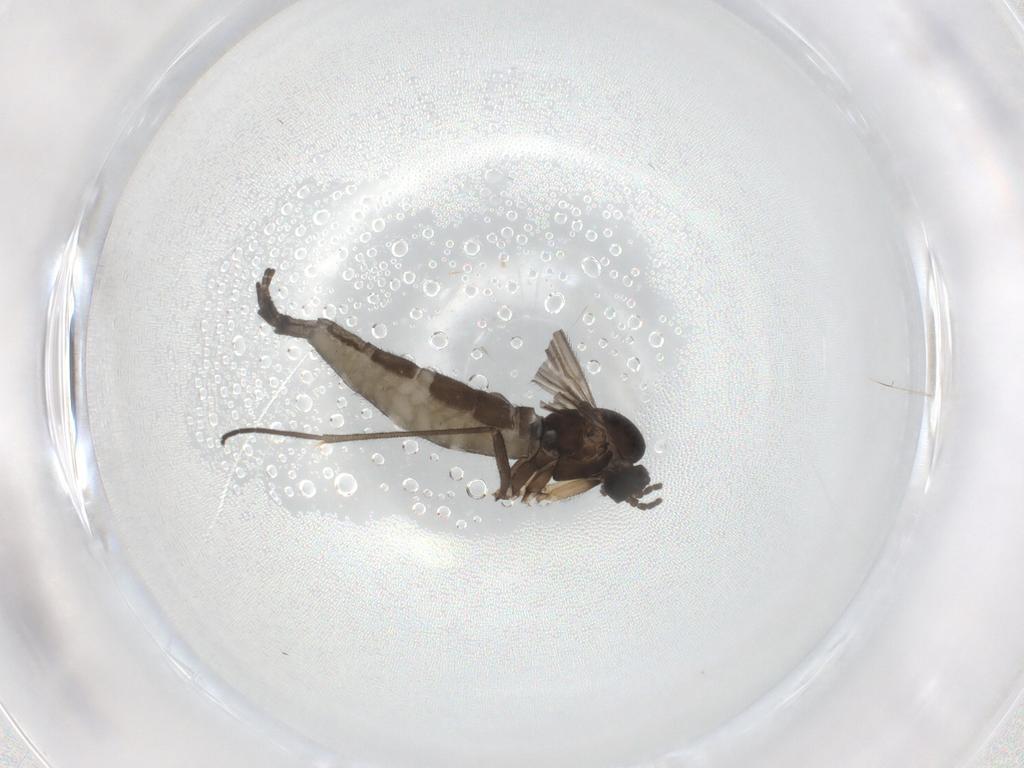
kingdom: Animalia
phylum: Arthropoda
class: Insecta
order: Diptera
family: Sciaridae
